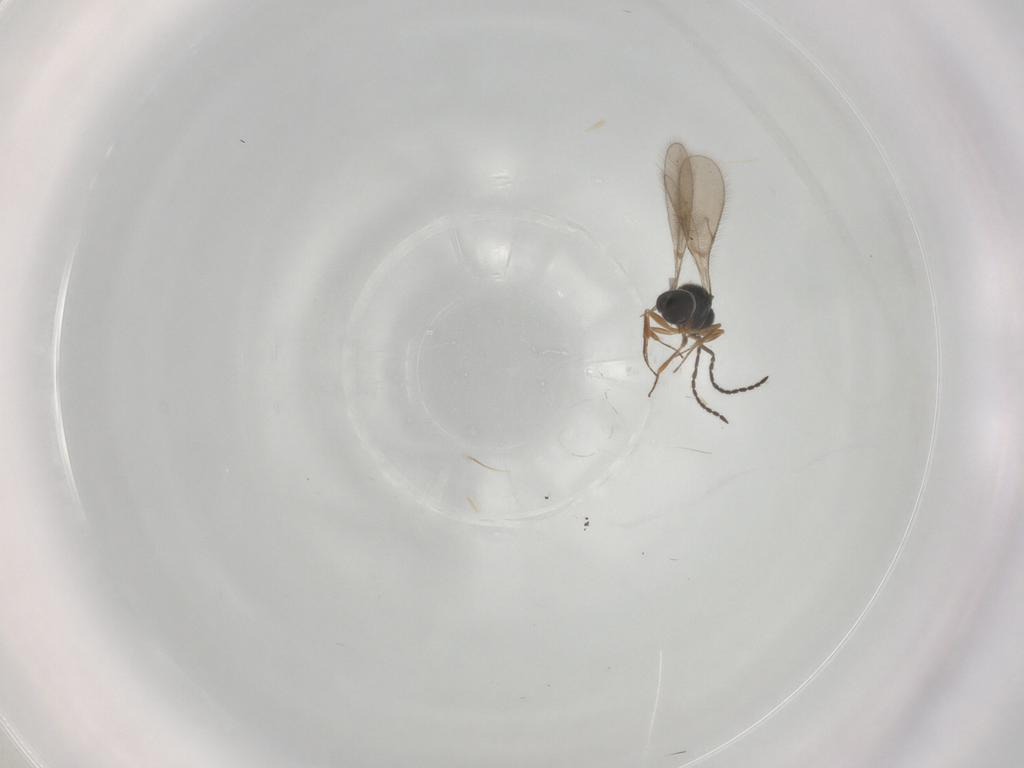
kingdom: Animalia
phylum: Arthropoda
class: Insecta
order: Hymenoptera
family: Scelionidae
